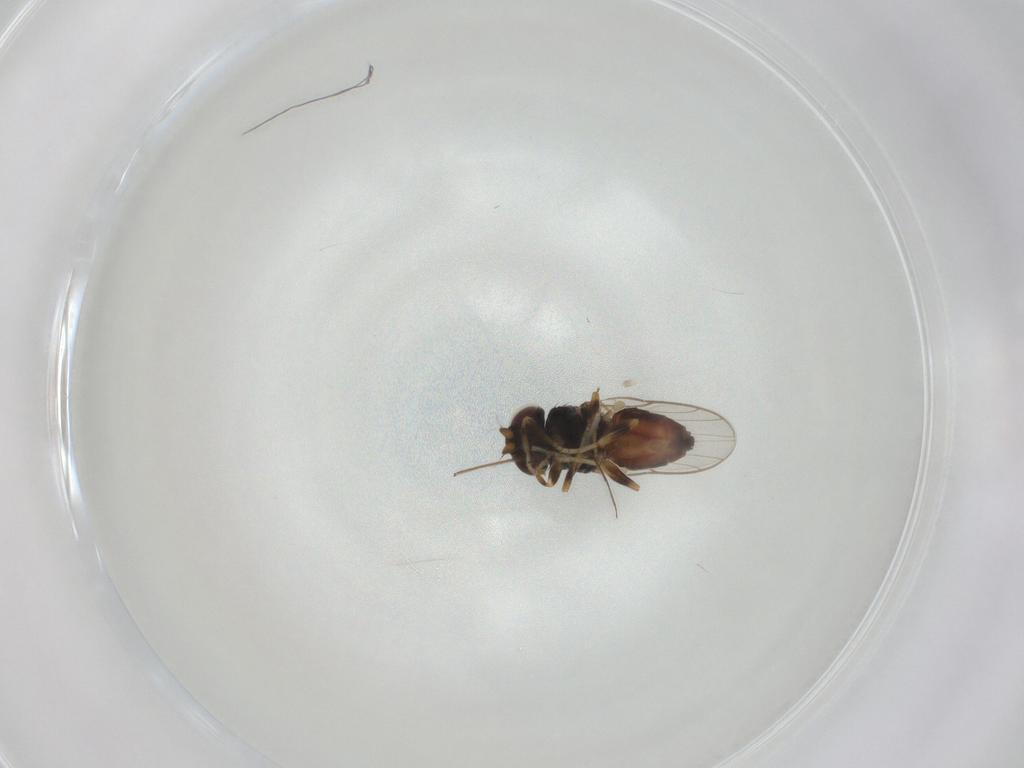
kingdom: Animalia
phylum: Arthropoda
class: Insecta
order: Diptera
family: Chloropidae
